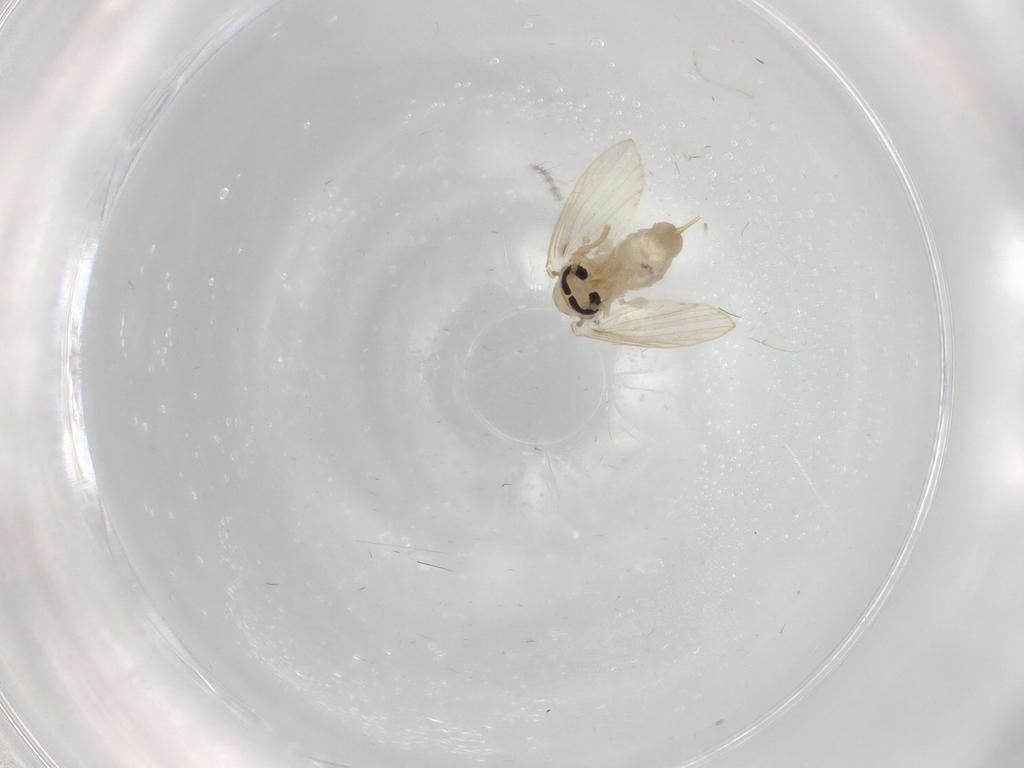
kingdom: Animalia
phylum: Arthropoda
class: Insecta
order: Diptera
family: Psychodidae
